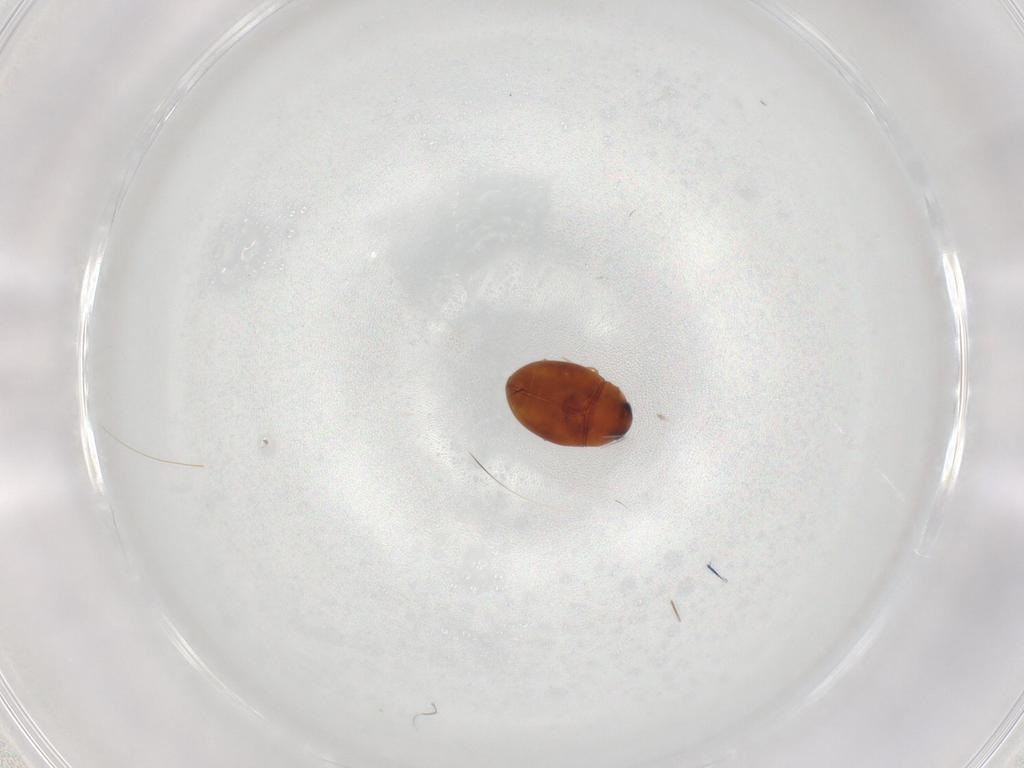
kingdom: Animalia
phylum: Arthropoda
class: Insecta
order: Coleoptera
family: Cryptophagidae
